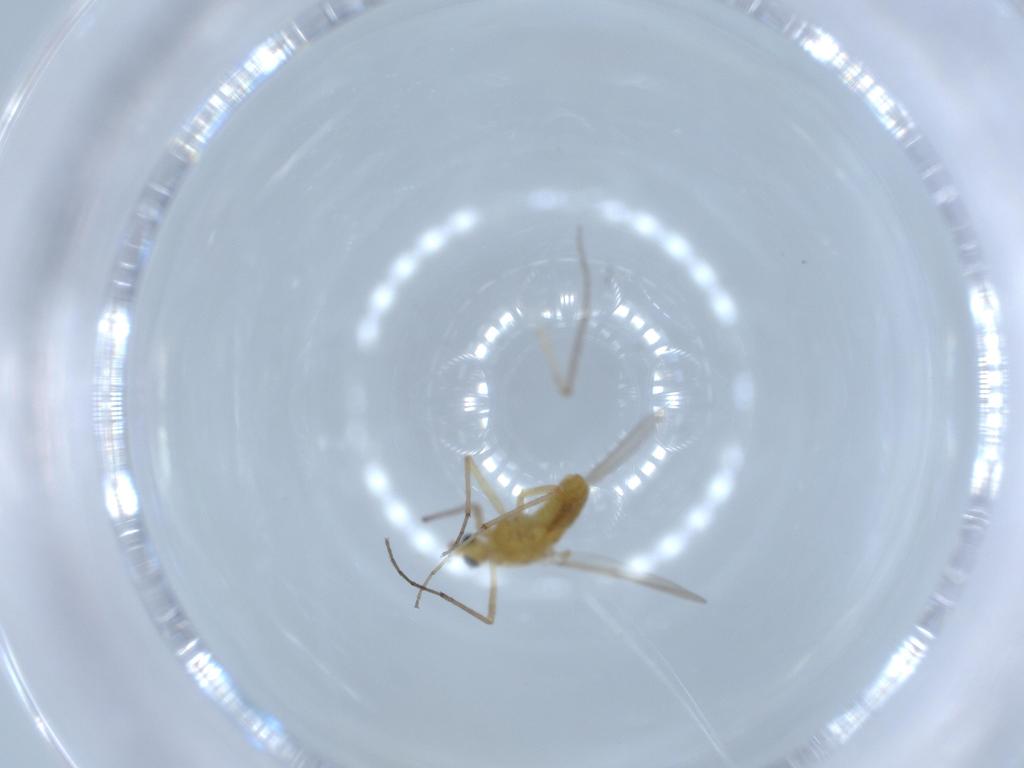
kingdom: Animalia
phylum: Arthropoda
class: Insecta
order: Diptera
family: Chironomidae
